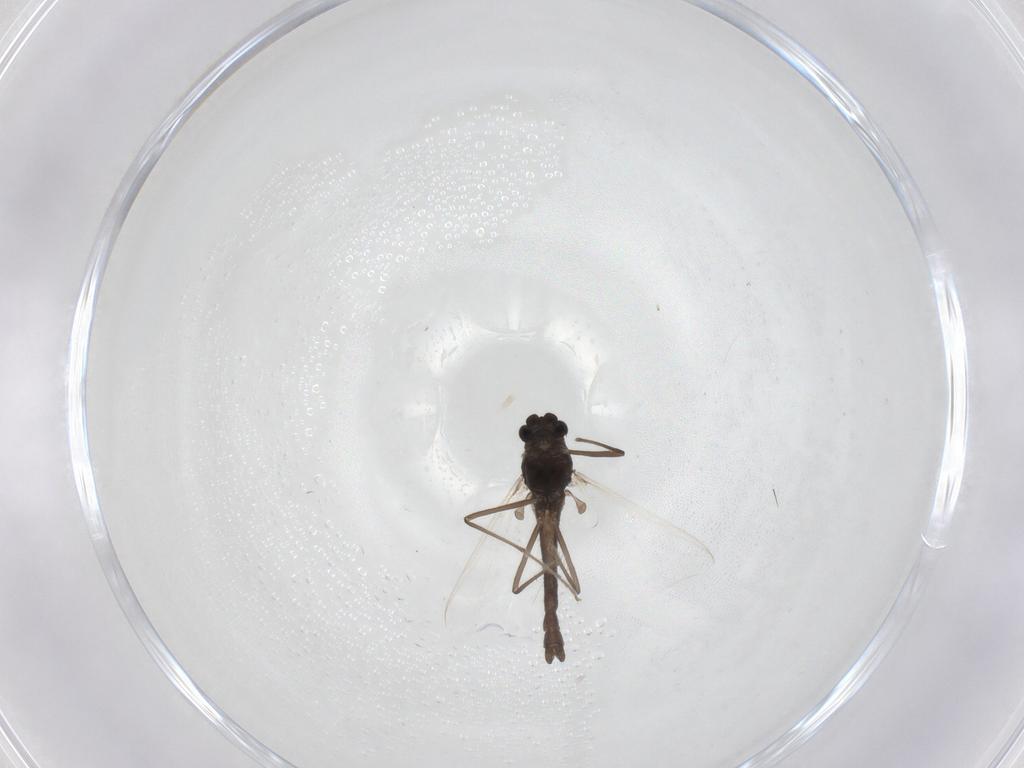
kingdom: Animalia
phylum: Arthropoda
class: Insecta
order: Diptera
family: Chironomidae
